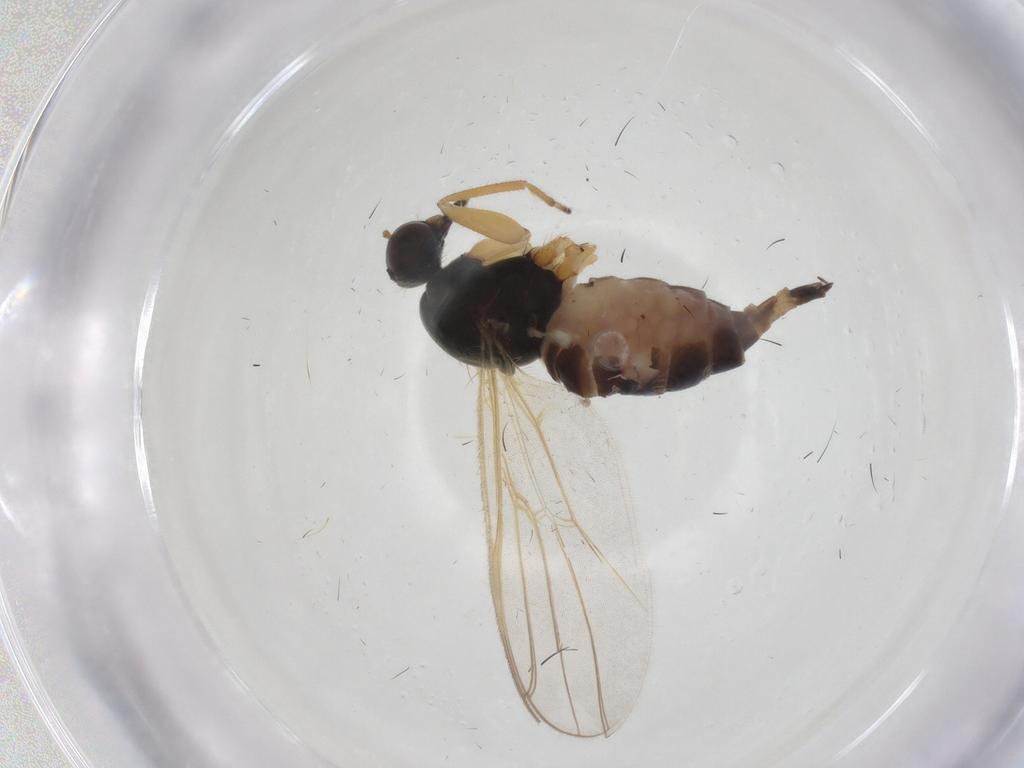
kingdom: Animalia
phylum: Arthropoda
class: Insecta
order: Diptera
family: Hybotidae
